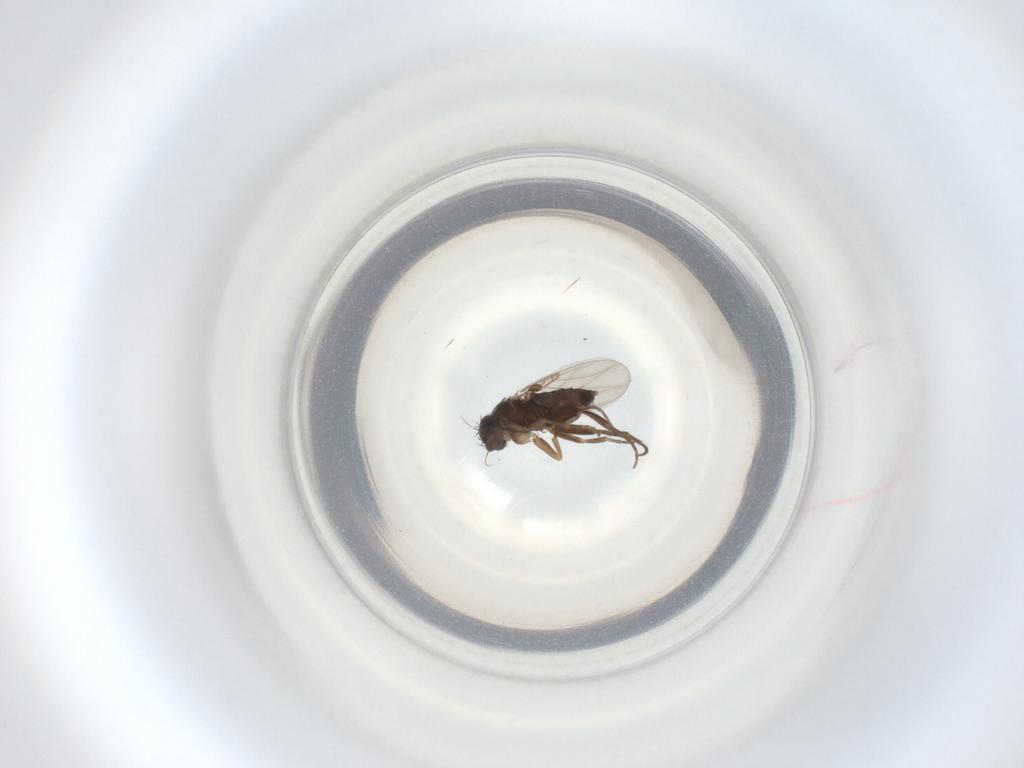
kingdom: Animalia
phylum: Arthropoda
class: Insecta
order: Diptera
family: Phoridae
